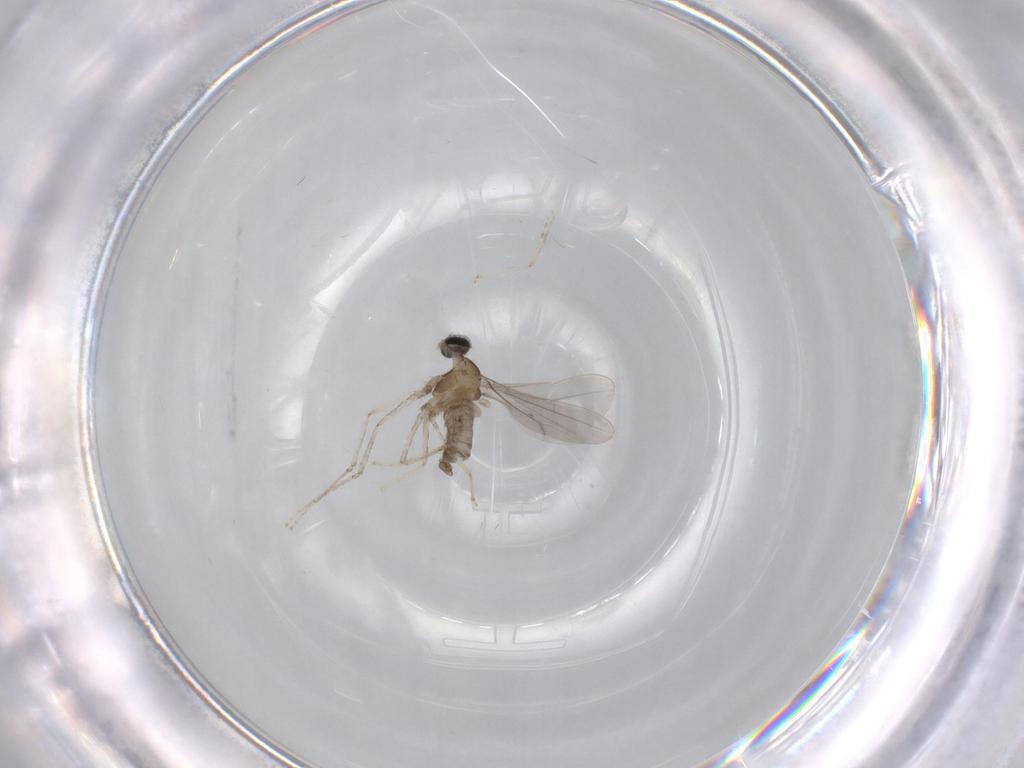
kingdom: Animalia
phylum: Arthropoda
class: Insecta
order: Diptera
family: Cecidomyiidae
